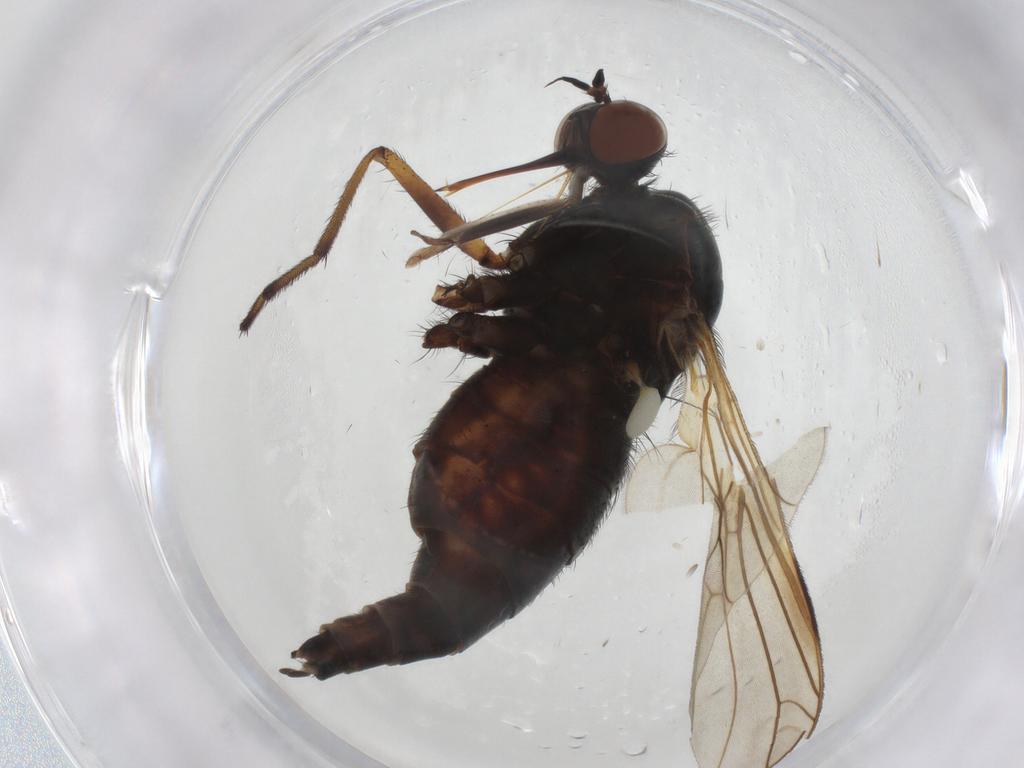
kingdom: Animalia
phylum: Arthropoda
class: Insecta
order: Diptera
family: Empididae
